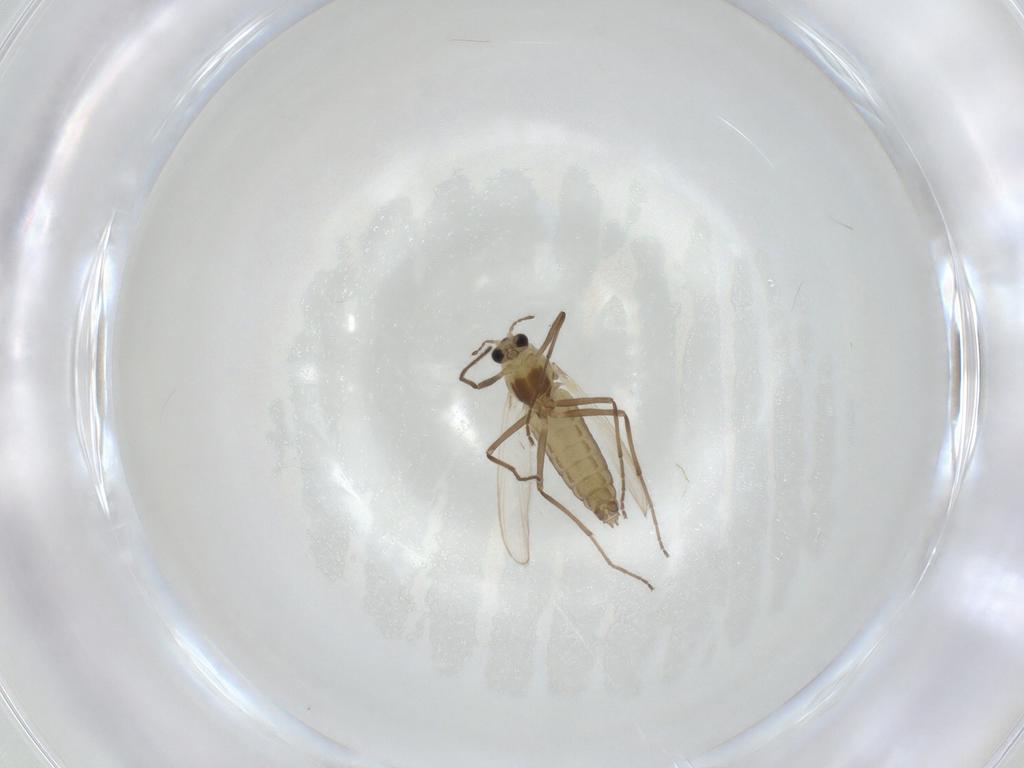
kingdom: Animalia
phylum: Arthropoda
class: Insecta
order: Diptera
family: Chironomidae
